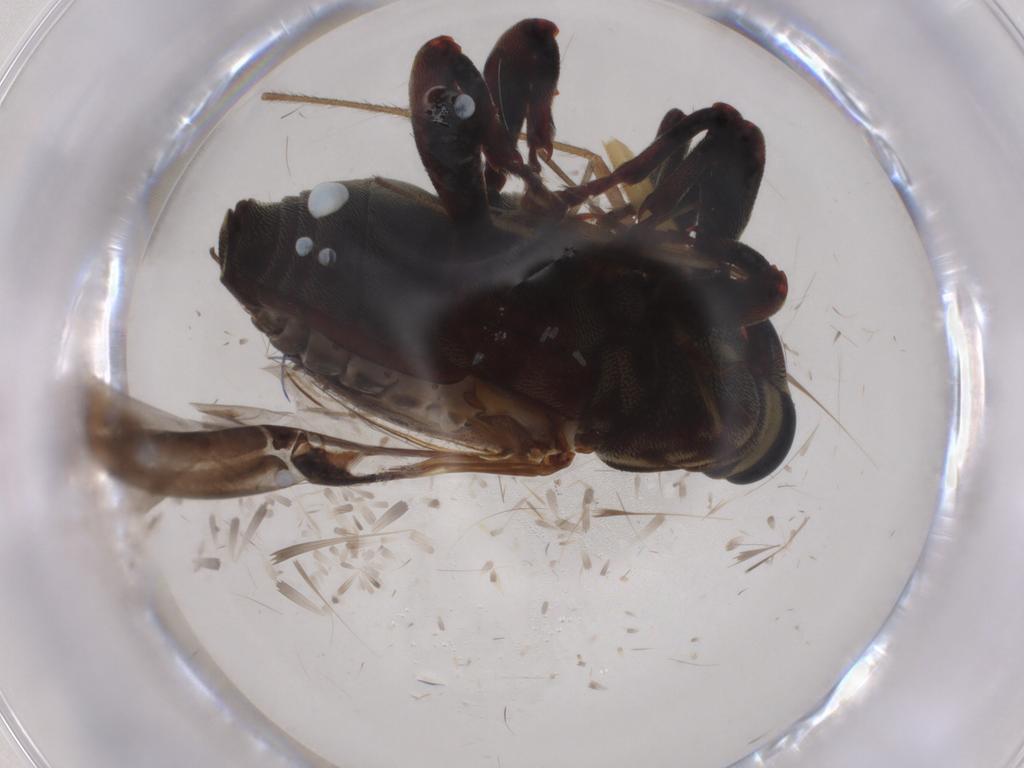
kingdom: Animalia
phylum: Arthropoda
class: Insecta
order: Coleoptera
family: Curculionidae
